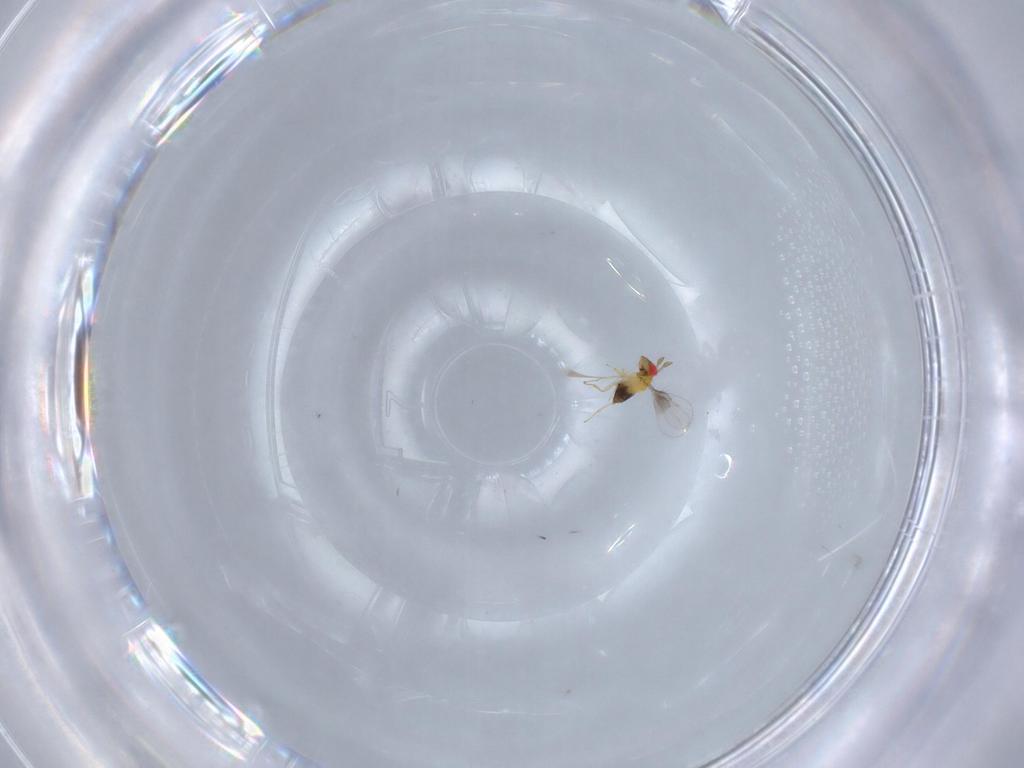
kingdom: Animalia
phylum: Arthropoda
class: Insecta
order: Hymenoptera
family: Trichogrammatidae
